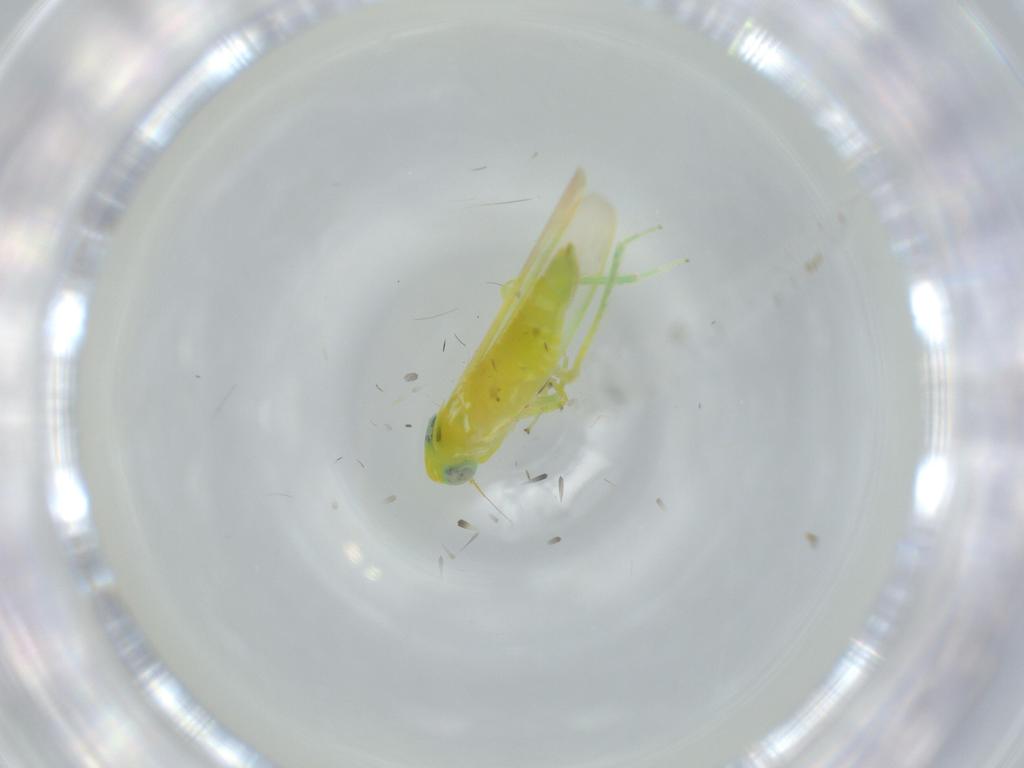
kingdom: Animalia
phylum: Arthropoda
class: Insecta
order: Hemiptera
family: Cicadellidae
